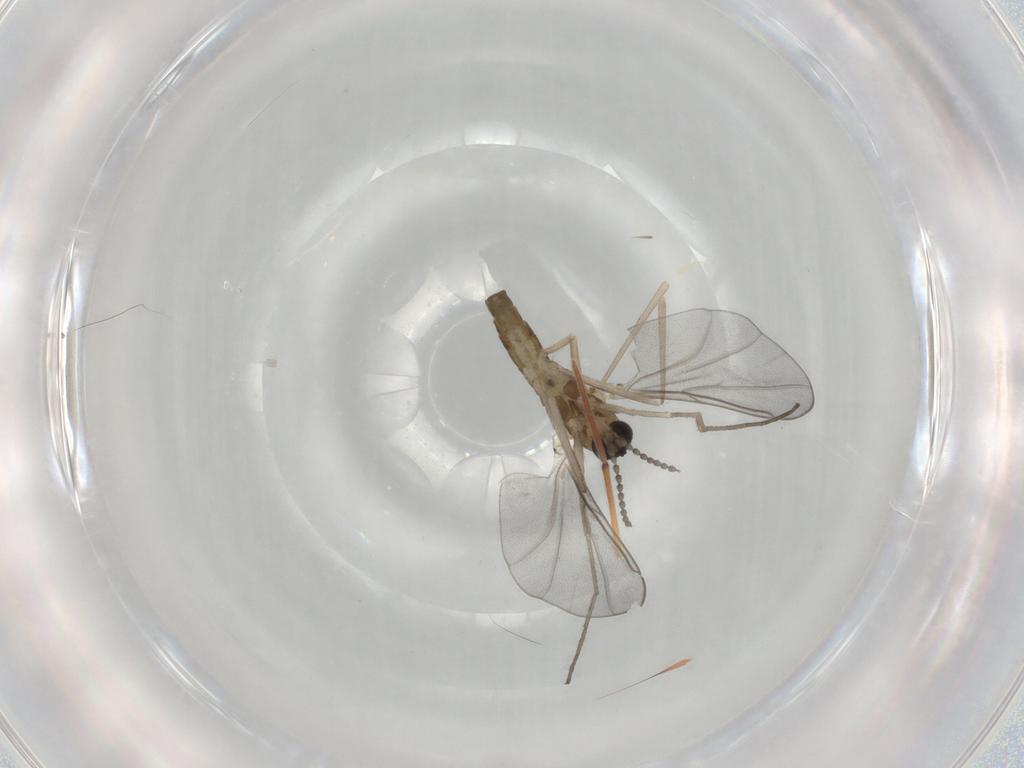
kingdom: Animalia
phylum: Arthropoda
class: Insecta
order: Diptera
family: Cecidomyiidae
